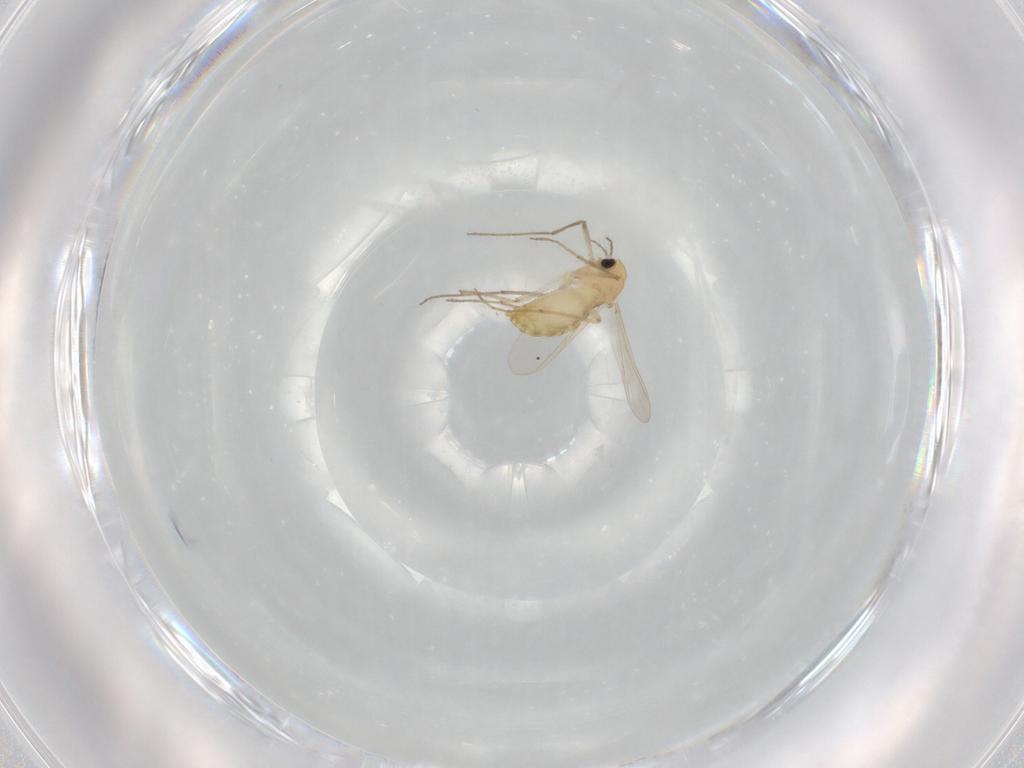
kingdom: Animalia
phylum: Arthropoda
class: Insecta
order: Diptera
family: Chironomidae
